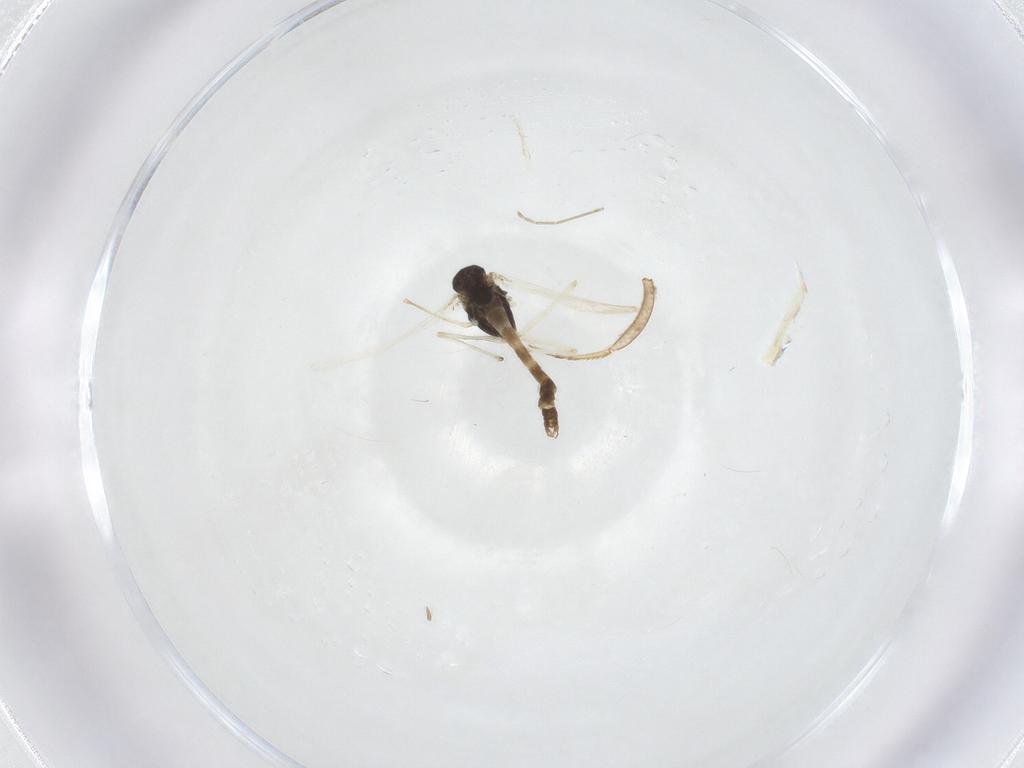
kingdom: Animalia
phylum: Arthropoda
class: Insecta
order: Diptera
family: Cecidomyiidae
